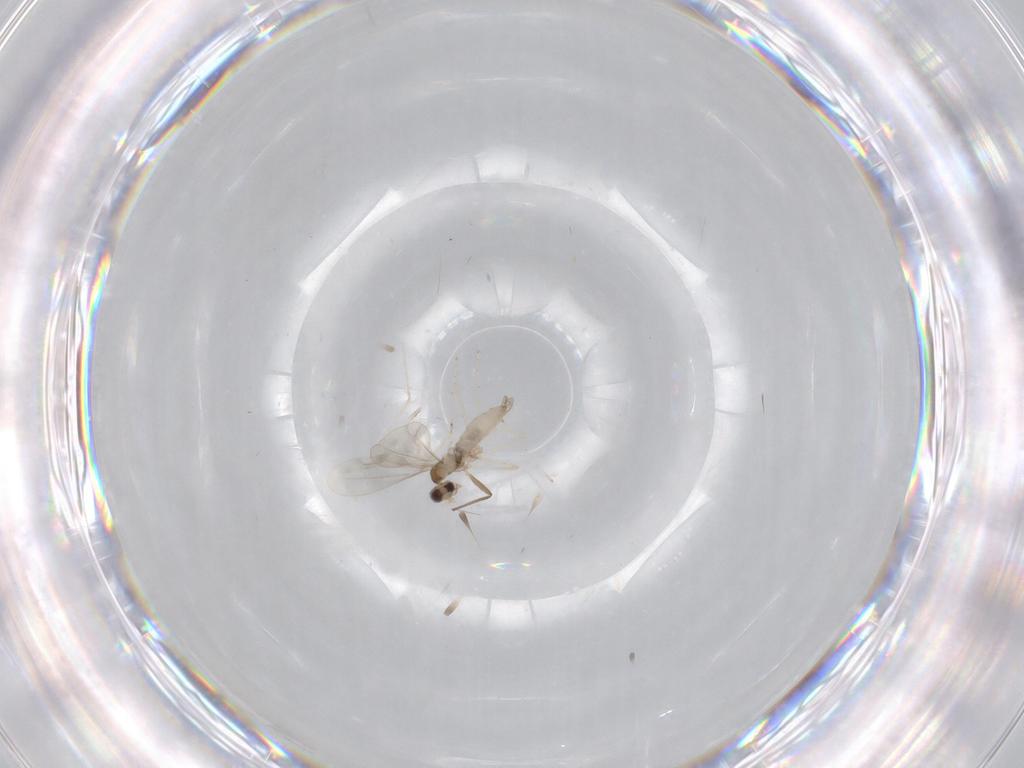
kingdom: Animalia
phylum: Arthropoda
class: Insecta
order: Diptera
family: Cecidomyiidae
